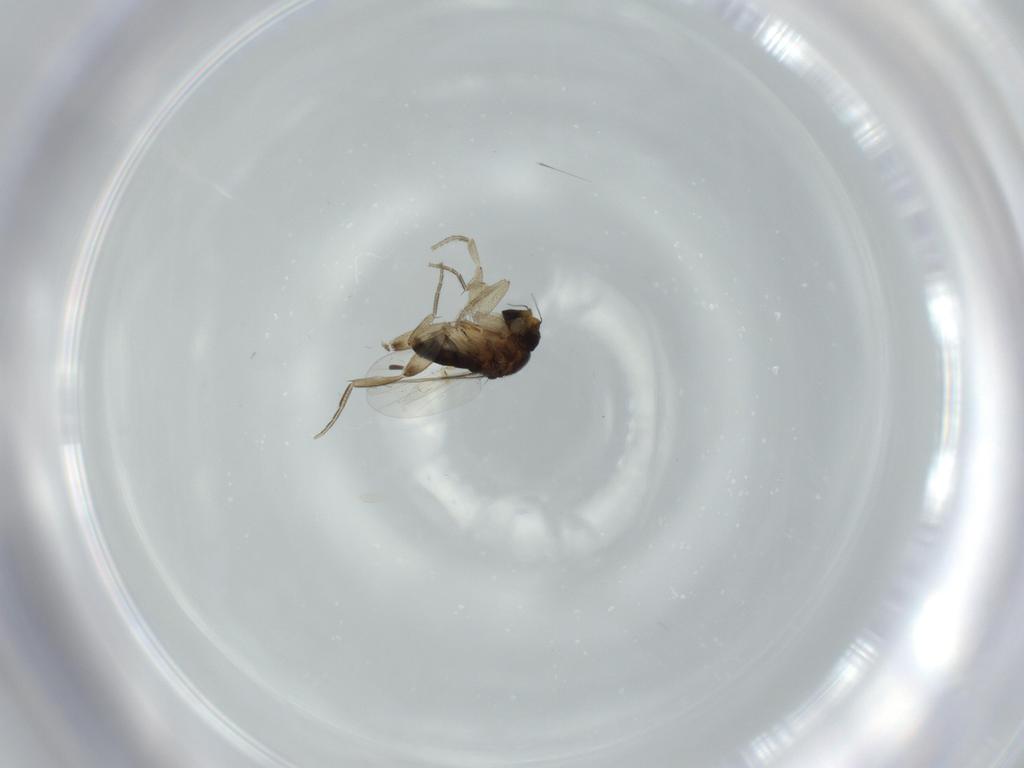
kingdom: Animalia
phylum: Arthropoda
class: Insecta
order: Diptera
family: Phoridae
